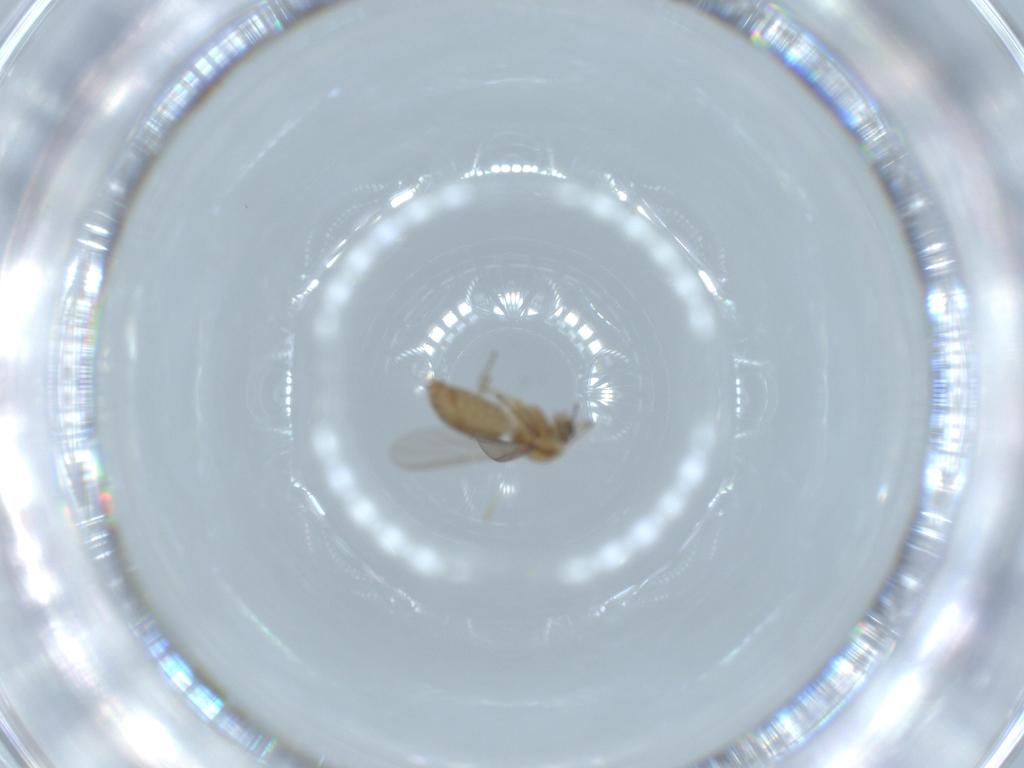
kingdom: Animalia
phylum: Arthropoda
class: Insecta
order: Diptera
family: Chironomidae
